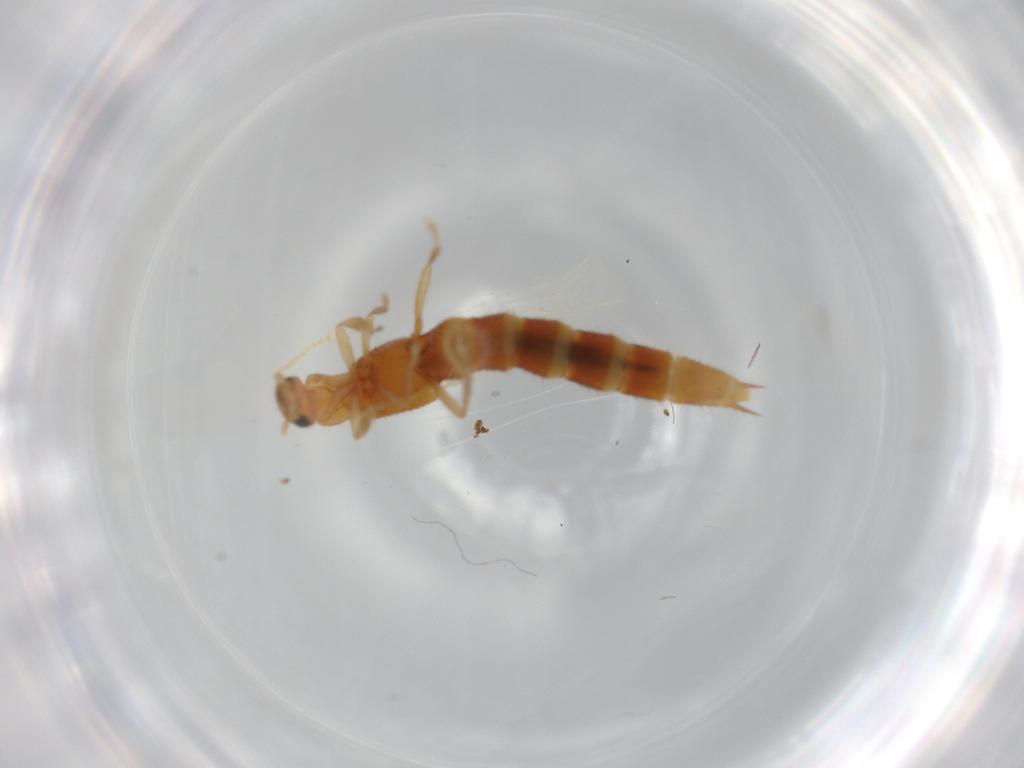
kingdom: Animalia
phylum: Arthropoda
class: Insecta
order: Coleoptera
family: Staphylinidae
